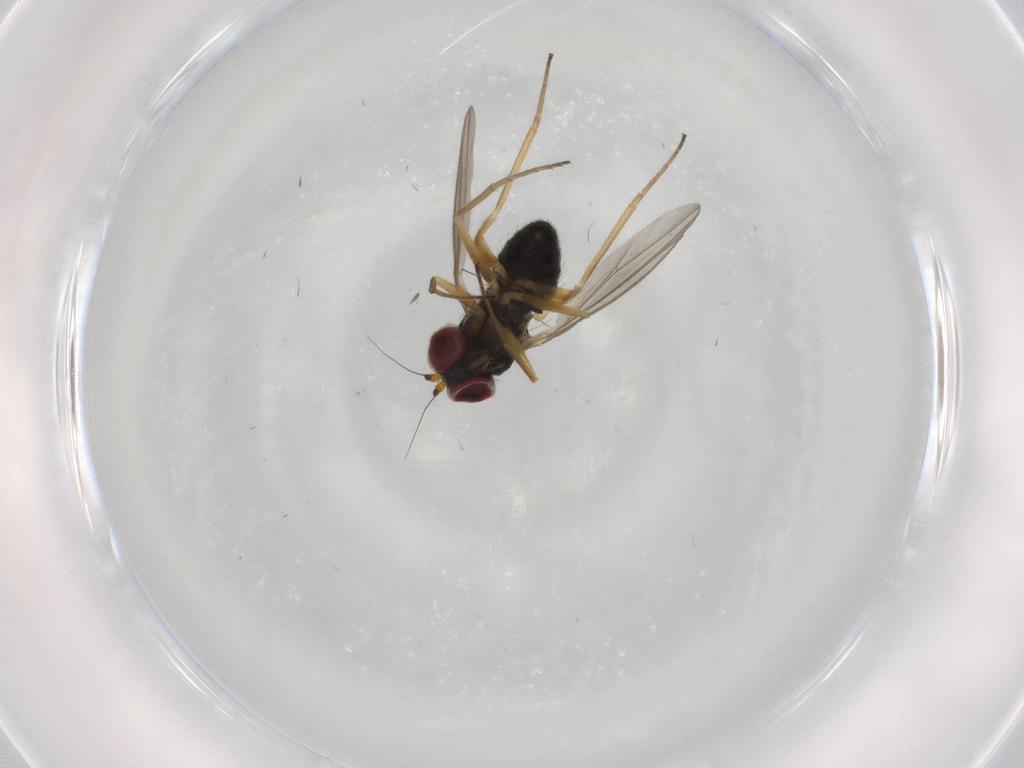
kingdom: Animalia
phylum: Arthropoda
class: Insecta
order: Diptera
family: Dolichopodidae
